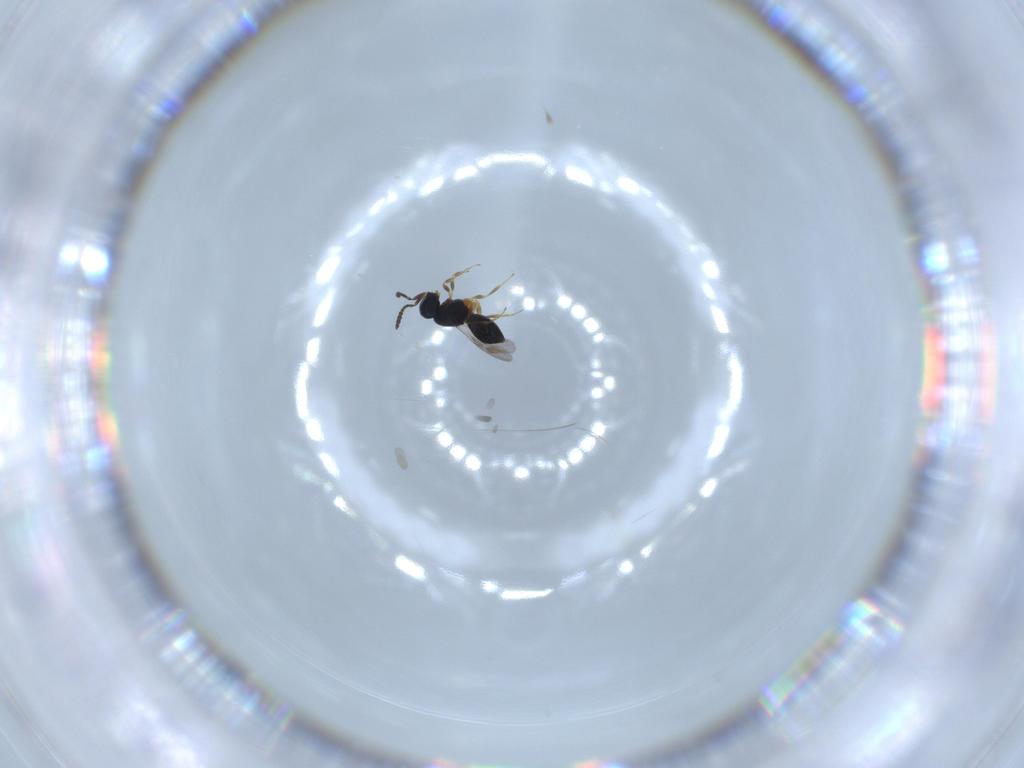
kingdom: Animalia
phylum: Arthropoda
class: Insecta
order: Hymenoptera
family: Scelionidae
